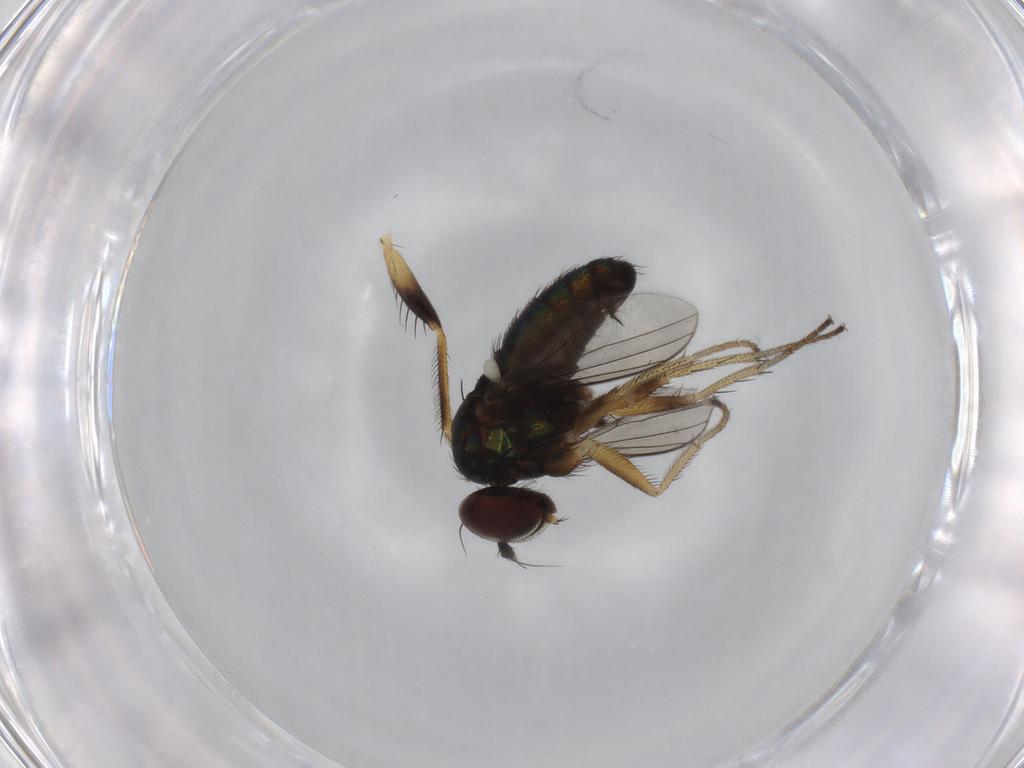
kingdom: Animalia
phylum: Arthropoda
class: Insecta
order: Diptera
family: Dolichopodidae
